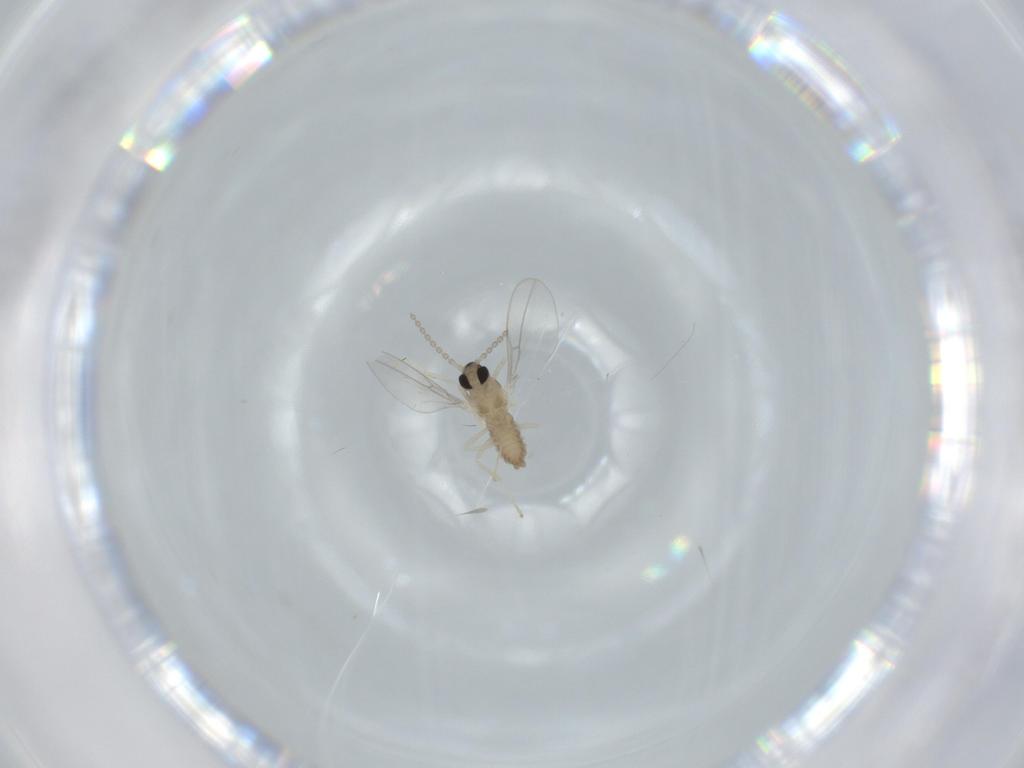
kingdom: Animalia
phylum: Arthropoda
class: Insecta
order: Diptera
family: Cecidomyiidae
